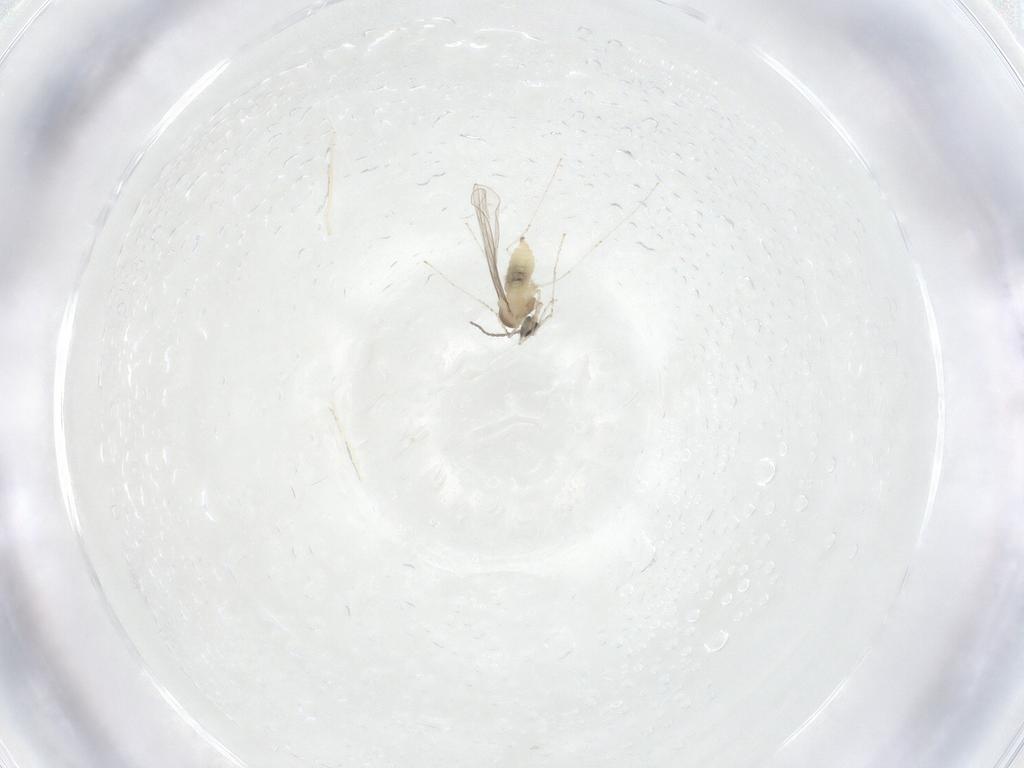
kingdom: Animalia
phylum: Arthropoda
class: Insecta
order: Diptera
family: Cecidomyiidae
